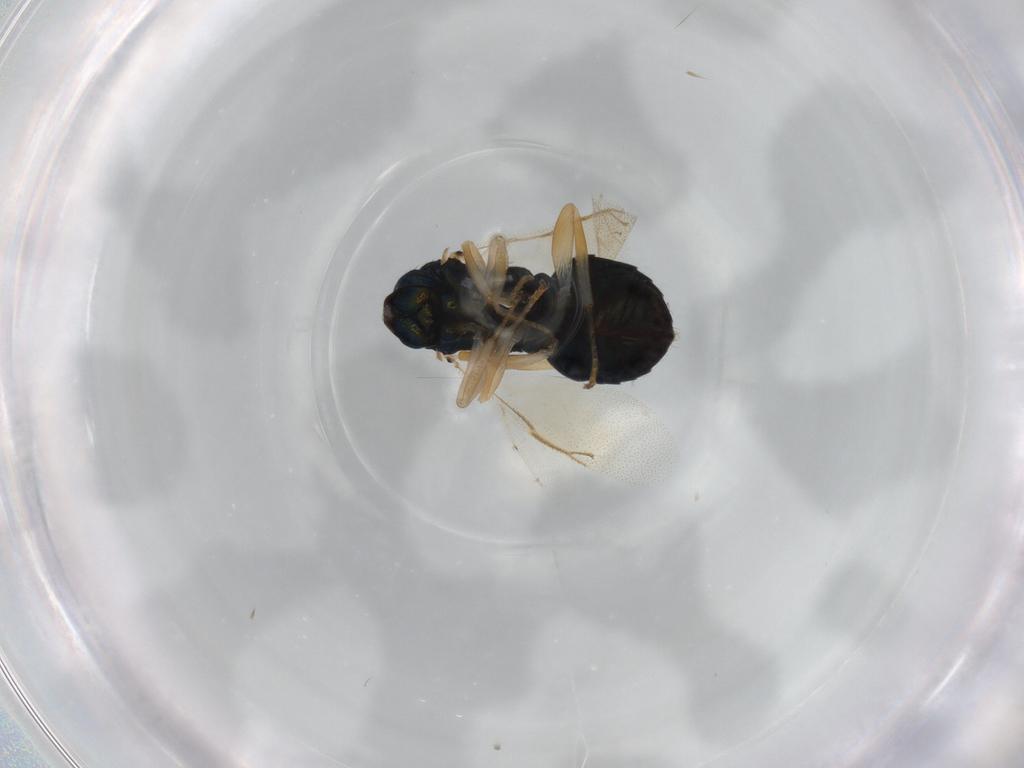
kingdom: Animalia
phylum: Arthropoda
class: Insecta
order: Hymenoptera
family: Pteromalidae
